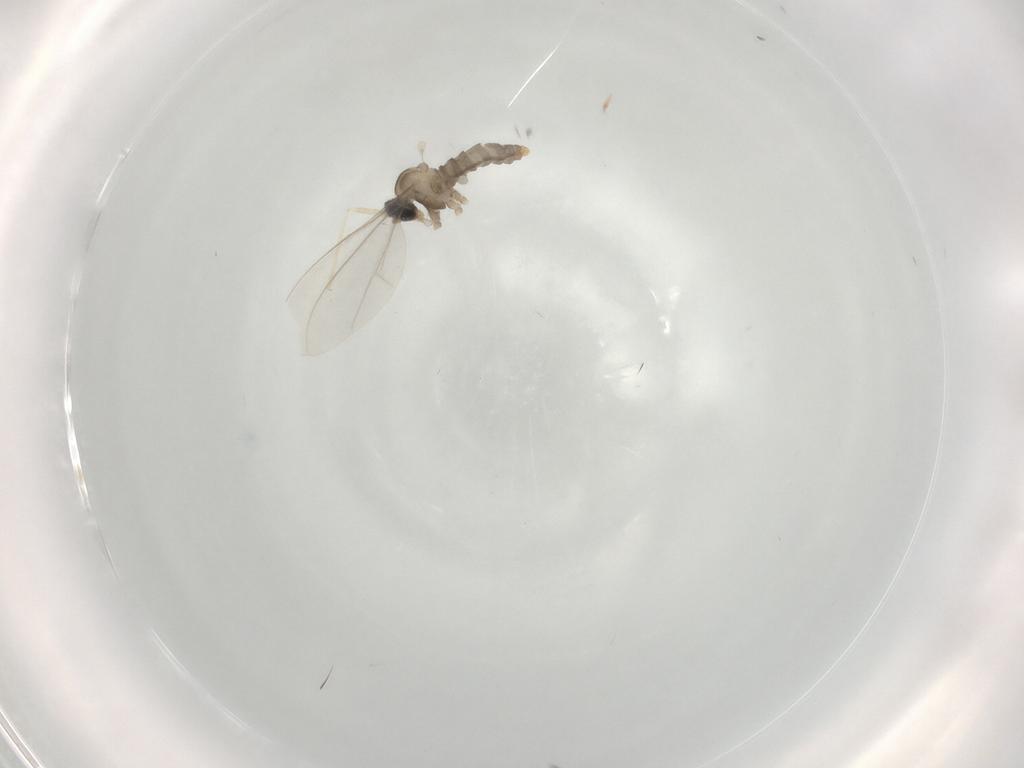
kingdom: Animalia
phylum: Arthropoda
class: Insecta
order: Diptera
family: Cecidomyiidae
